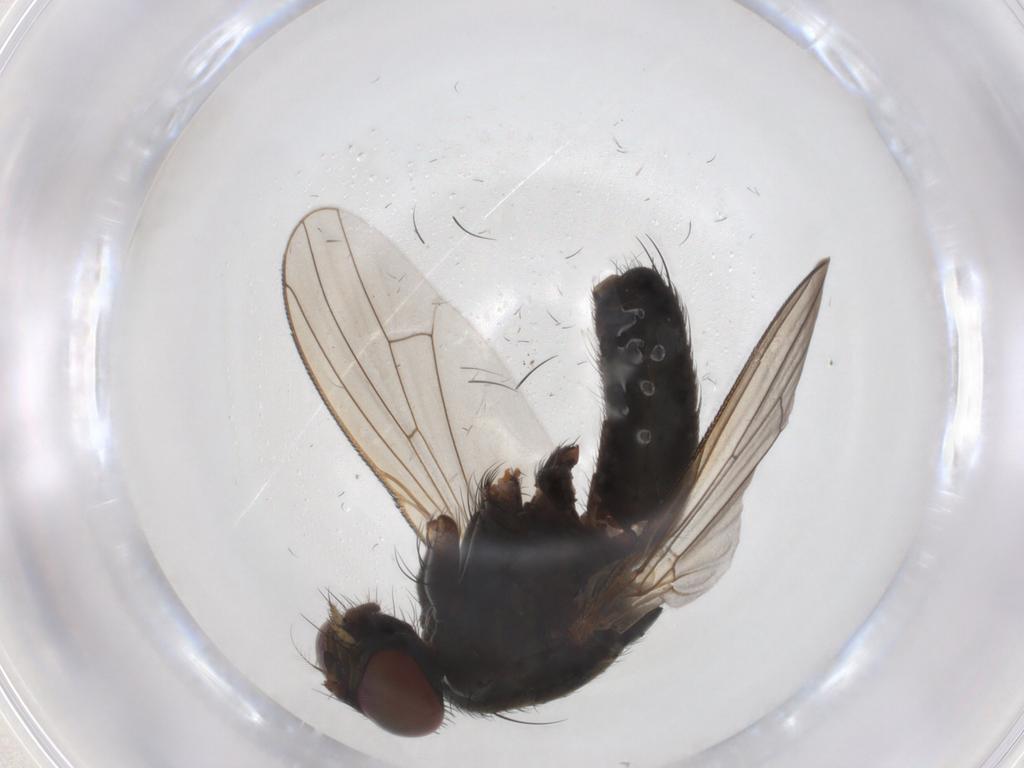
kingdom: Animalia
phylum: Arthropoda
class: Insecta
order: Diptera
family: Muscidae
